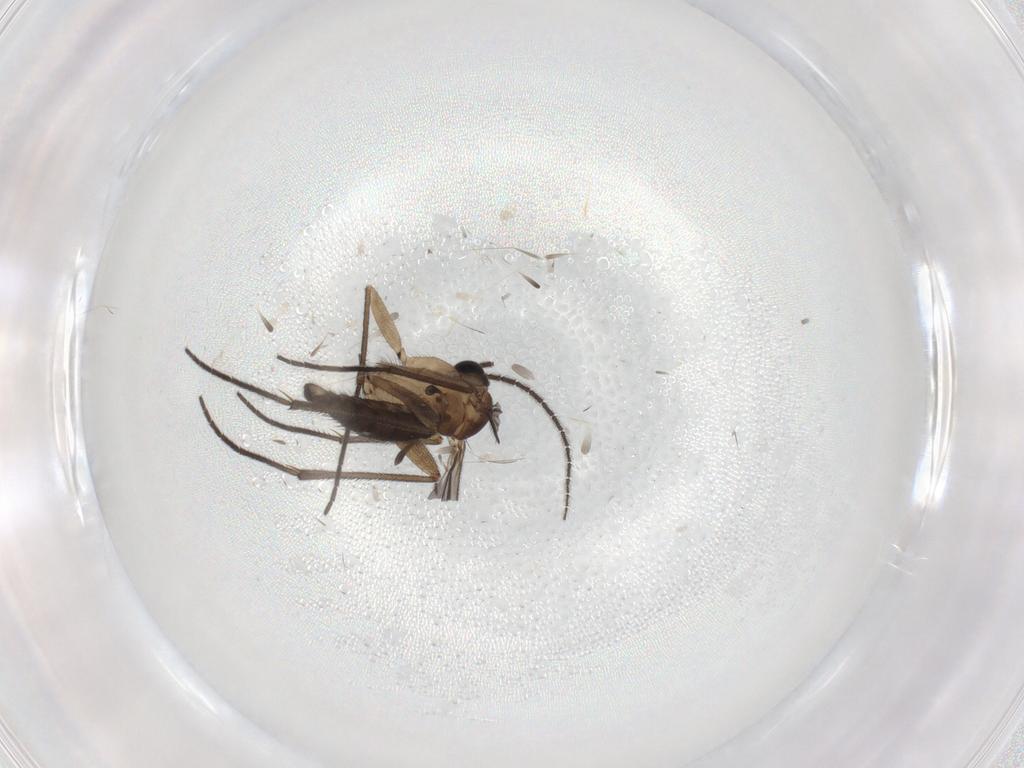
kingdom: Animalia
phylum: Arthropoda
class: Insecta
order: Diptera
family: Sciaridae
